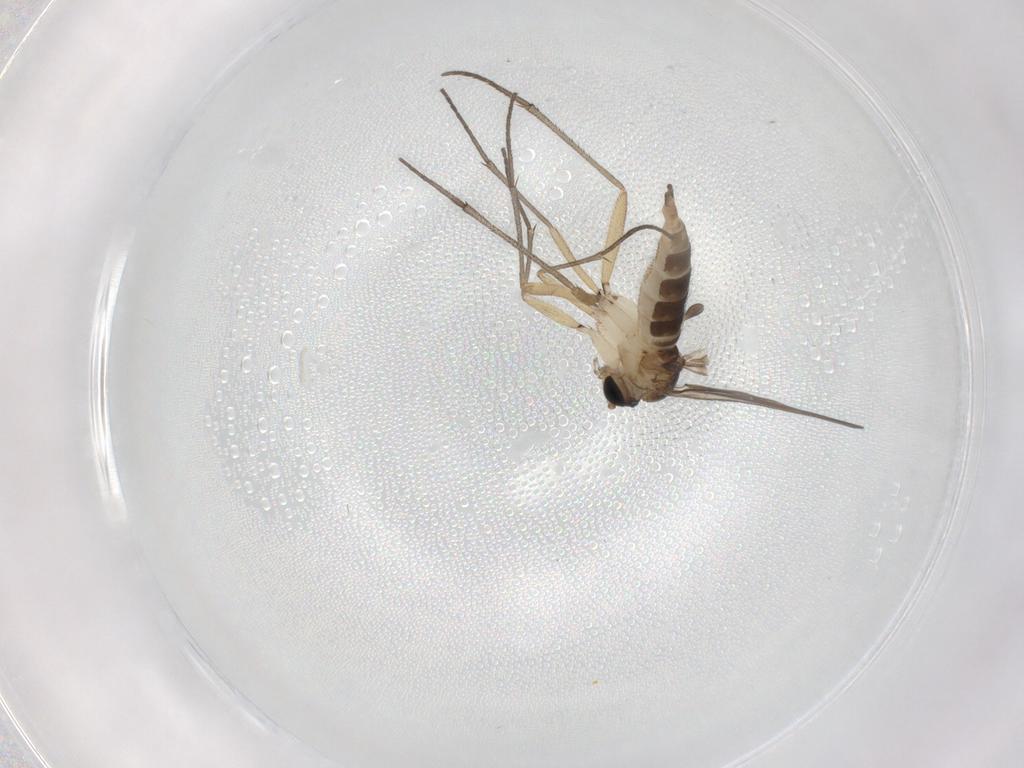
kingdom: Animalia
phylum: Arthropoda
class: Insecta
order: Diptera
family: Sciaridae
